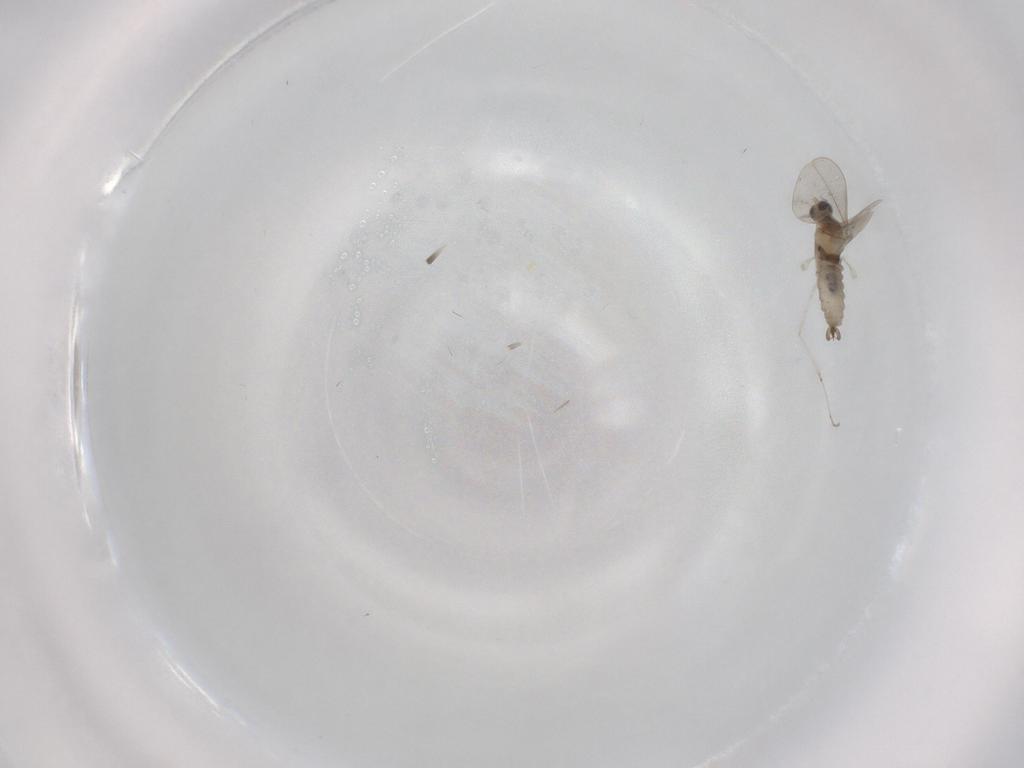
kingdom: Animalia
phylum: Arthropoda
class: Insecta
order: Diptera
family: Cecidomyiidae
